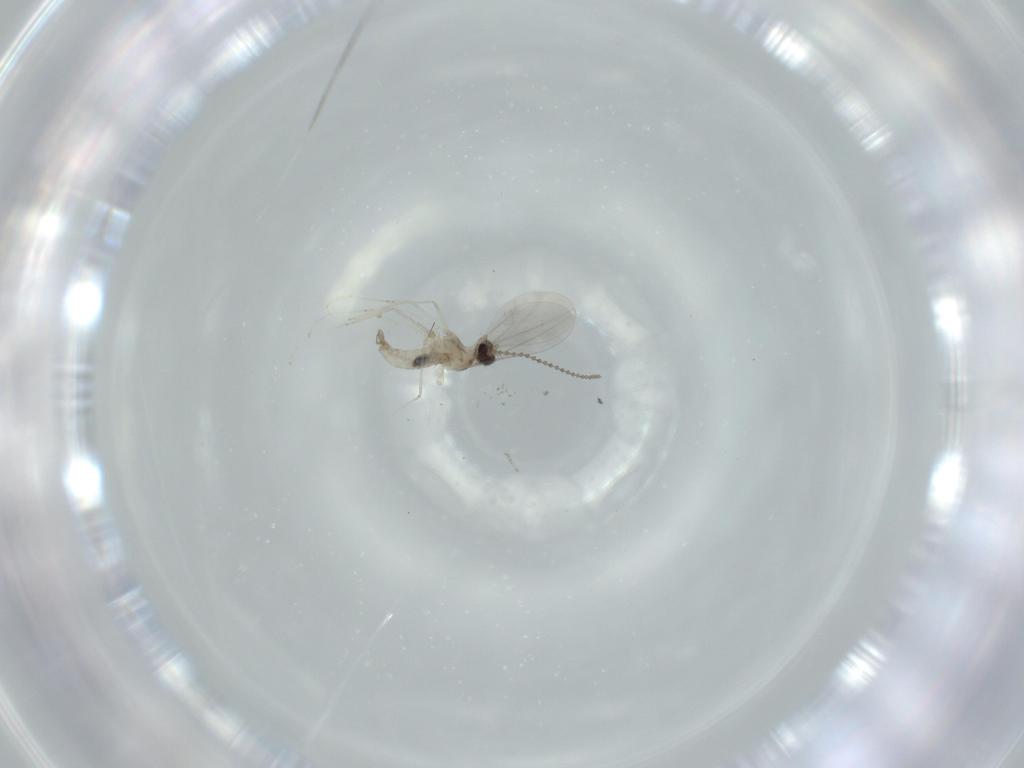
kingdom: Animalia
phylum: Arthropoda
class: Insecta
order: Diptera
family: Cecidomyiidae
